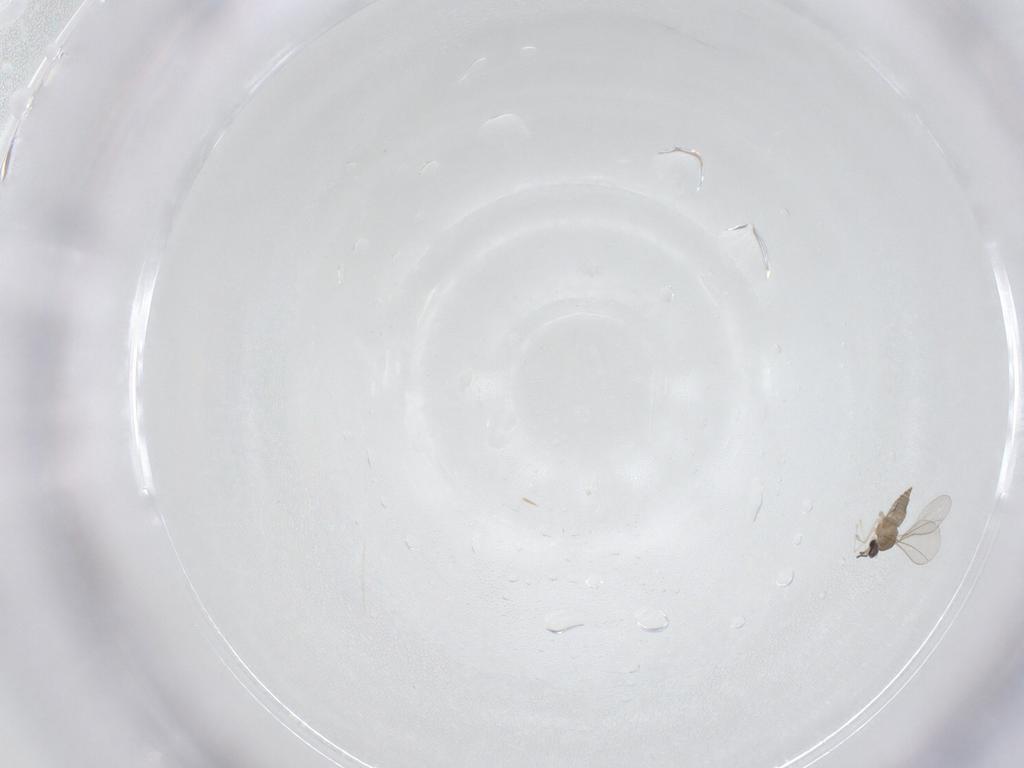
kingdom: Animalia
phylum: Arthropoda
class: Insecta
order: Diptera
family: Cecidomyiidae
